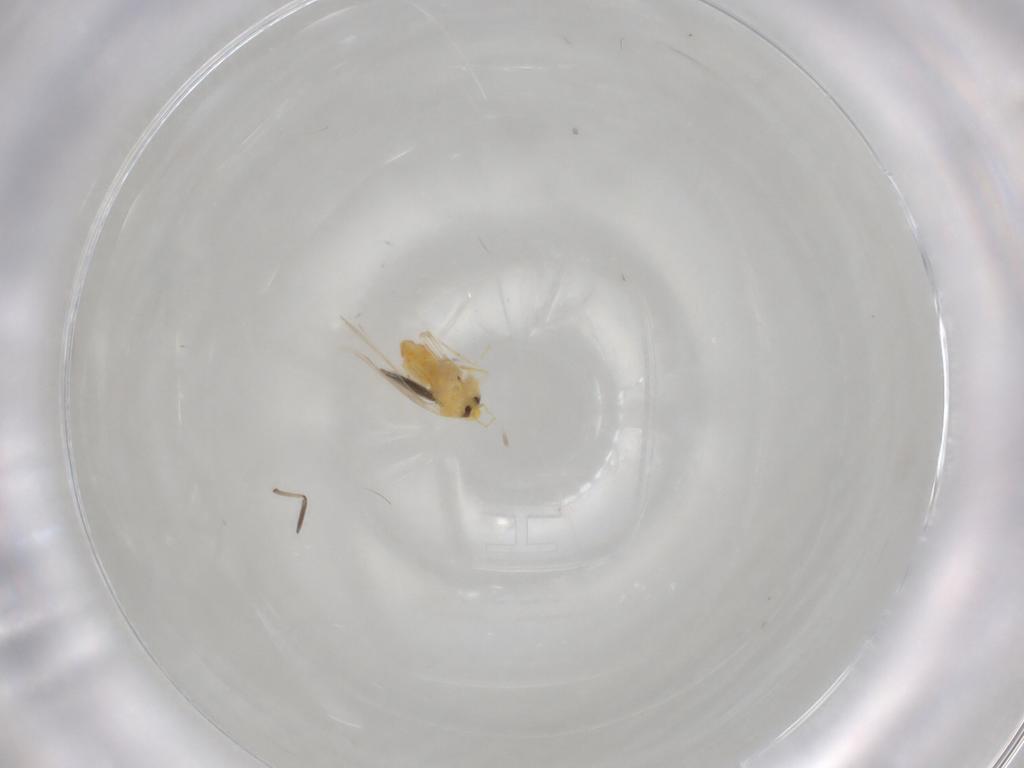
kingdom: Animalia
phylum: Arthropoda
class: Insecta
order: Hemiptera
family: Aleyrodidae
